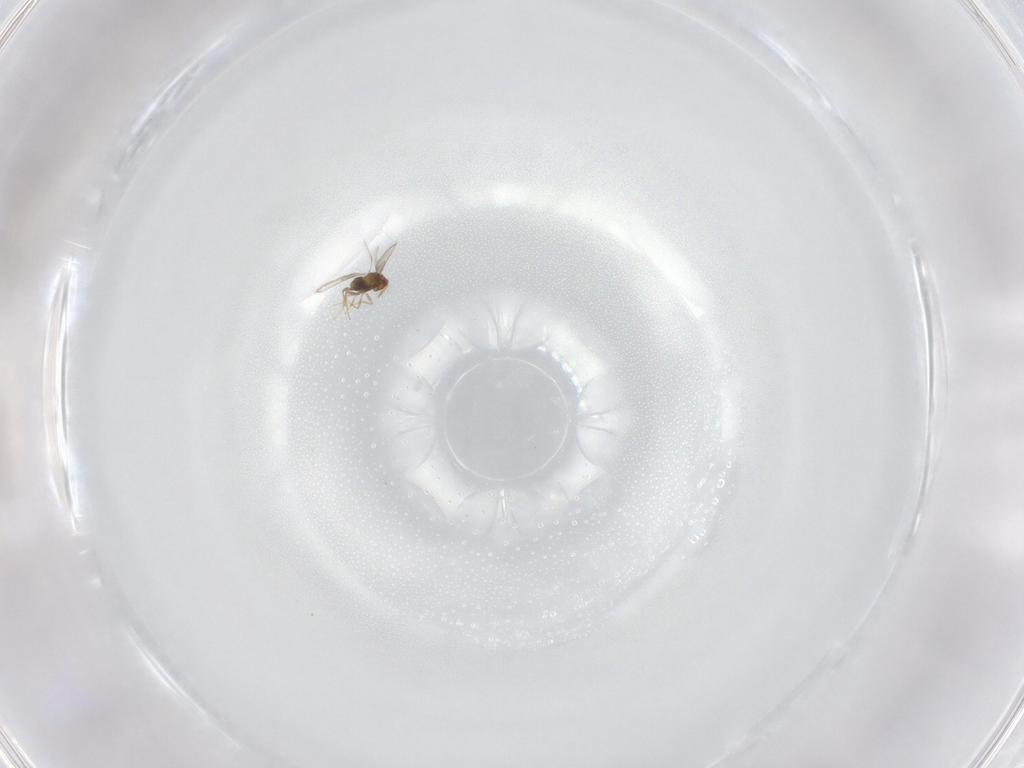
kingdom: Animalia
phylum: Arthropoda
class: Insecta
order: Hymenoptera
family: Trichogrammatidae
